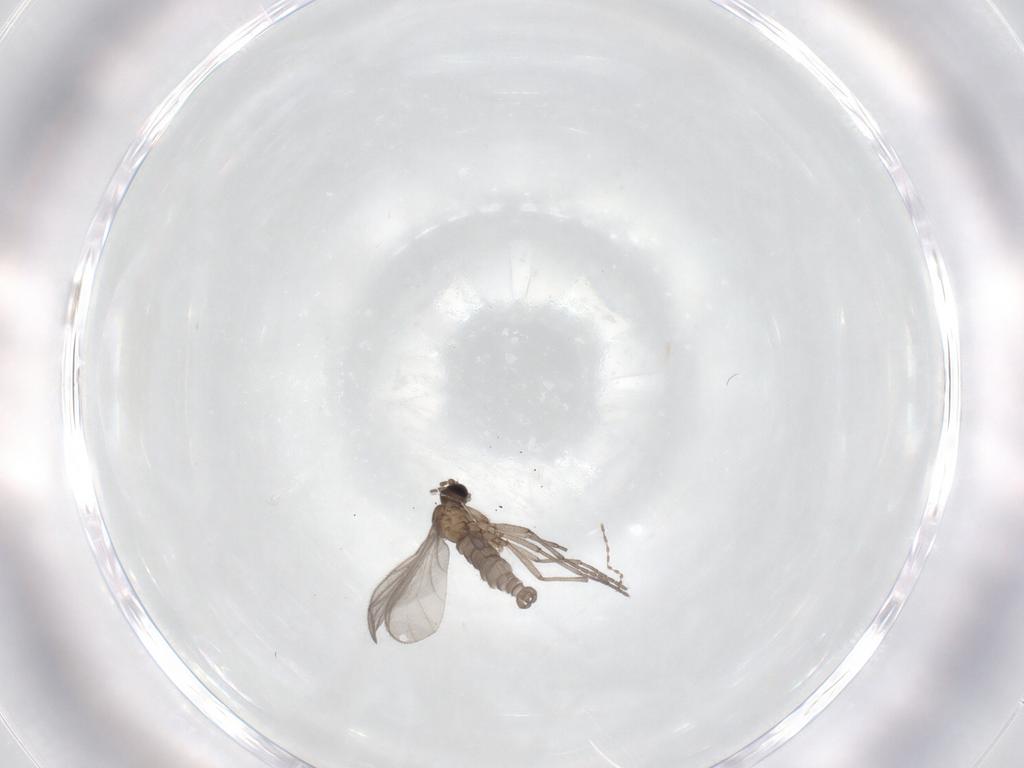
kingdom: Animalia
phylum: Arthropoda
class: Insecta
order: Diptera
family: Sciaridae
